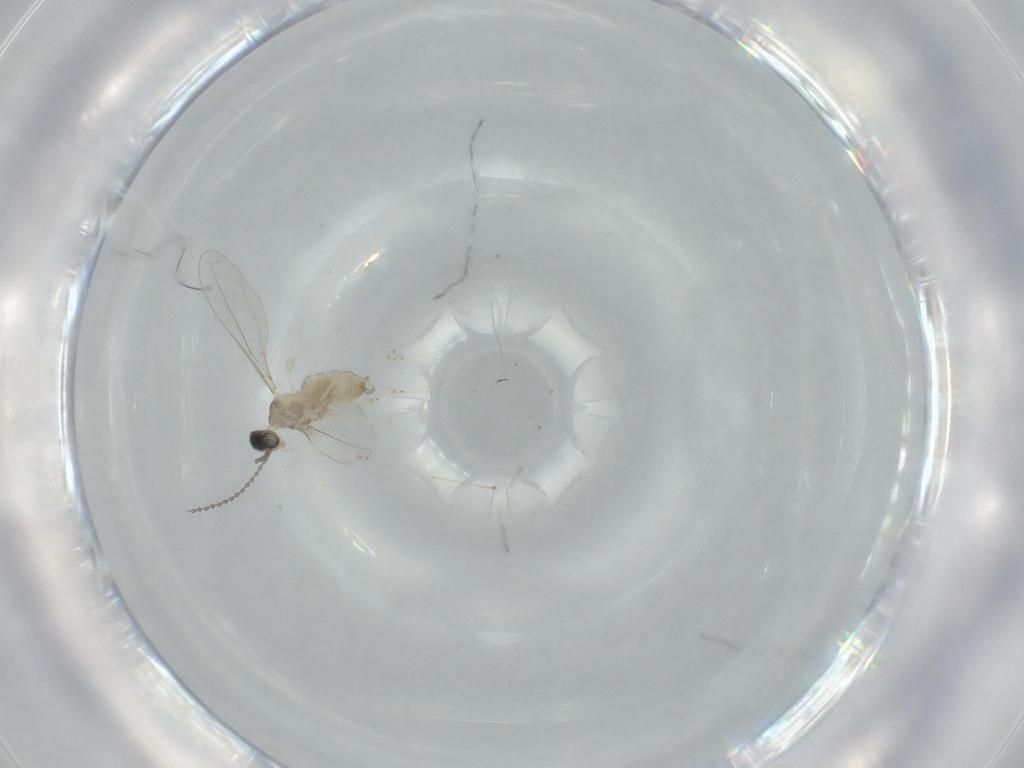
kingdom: Animalia
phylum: Arthropoda
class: Insecta
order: Diptera
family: Cecidomyiidae
